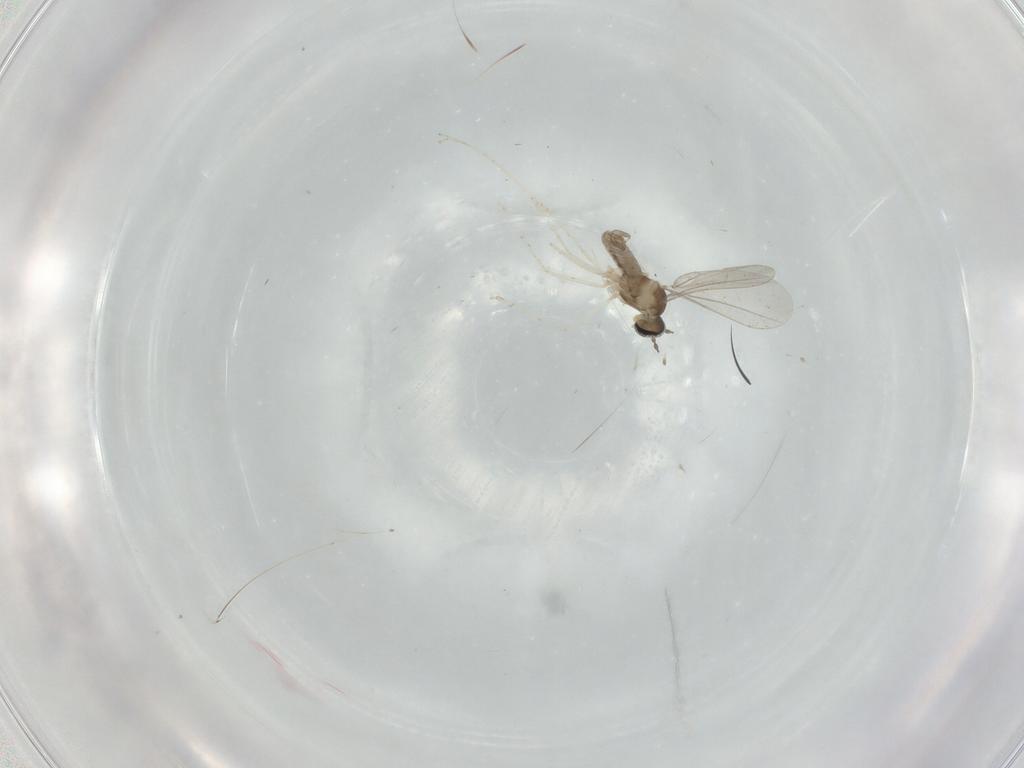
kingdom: Animalia
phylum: Arthropoda
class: Insecta
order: Diptera
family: Cecidomyiidae
